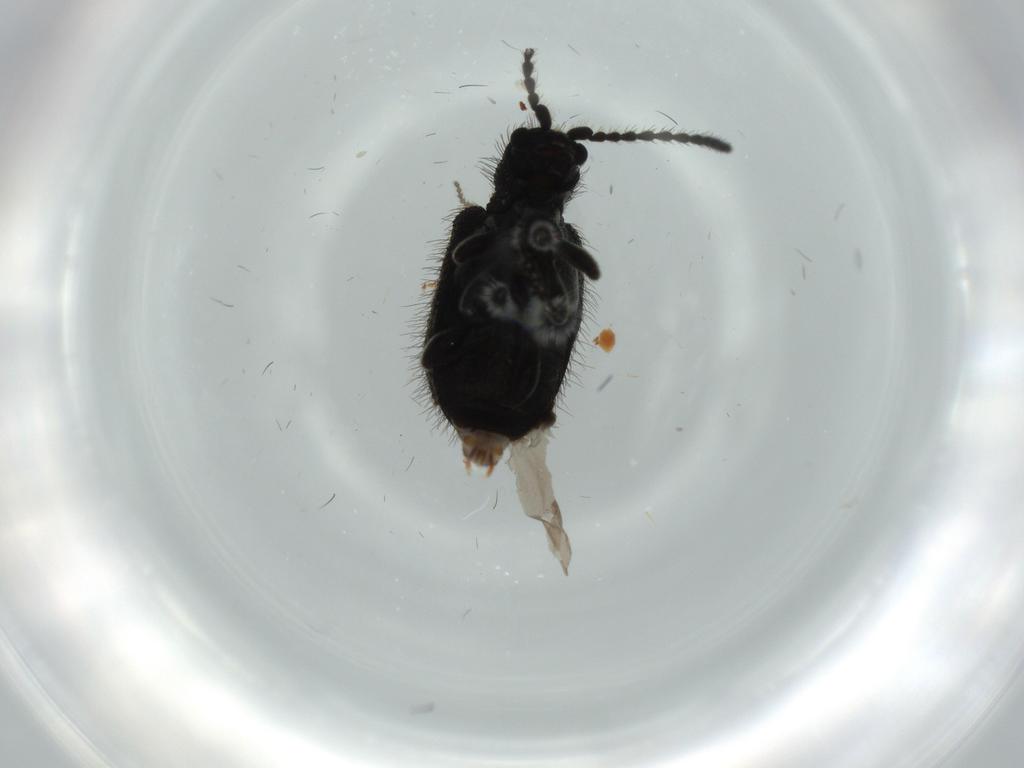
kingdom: Animalia
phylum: Arthropoda
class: Insecta
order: Coleoptera
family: Ptinidae
